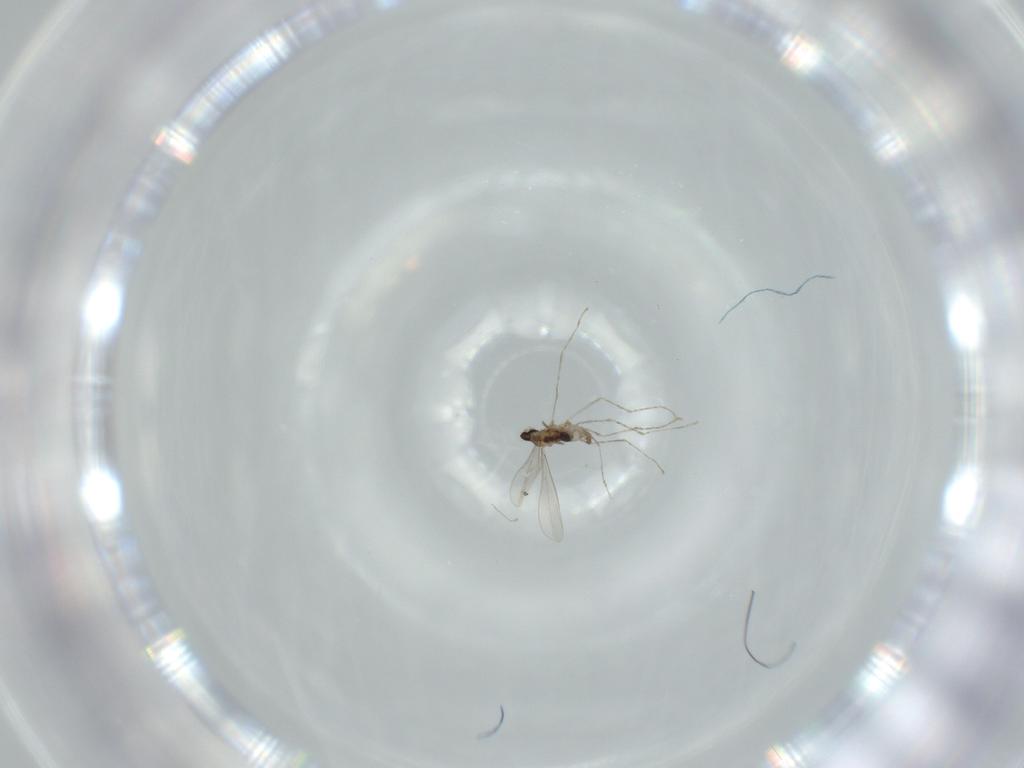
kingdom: Animalia
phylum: Arthropoda
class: Insecta
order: Diptera
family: Cecidomyiidae
